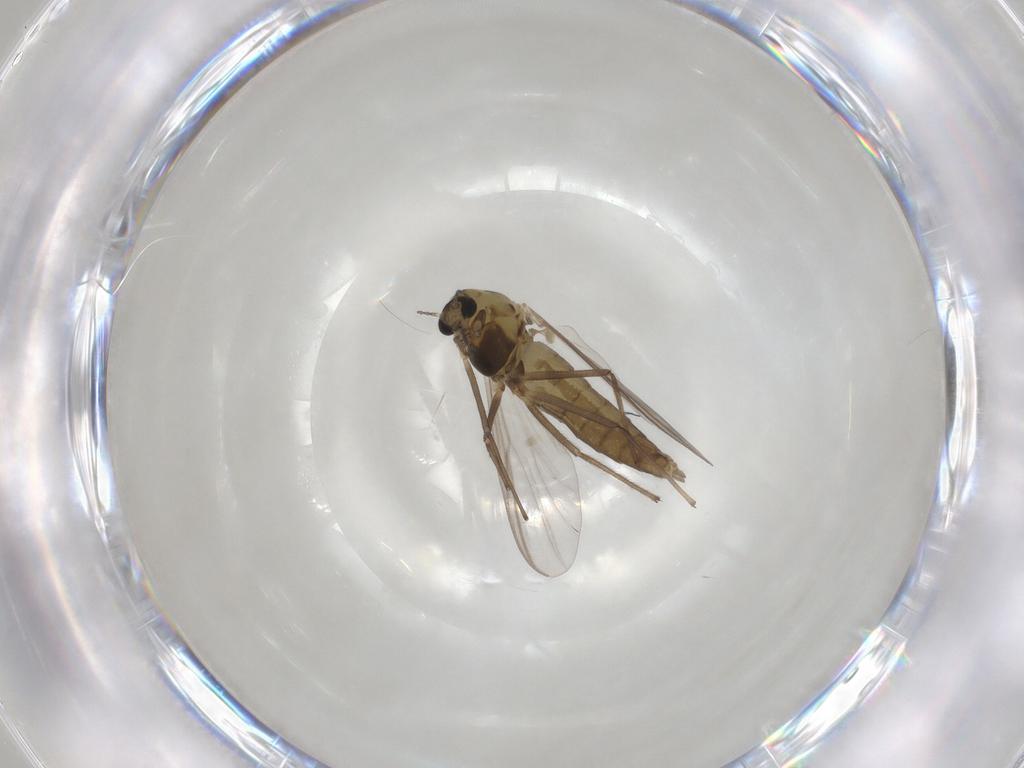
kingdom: Animalia
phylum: Arthropoda
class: Insecta
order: Diptera
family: Chironomidae
